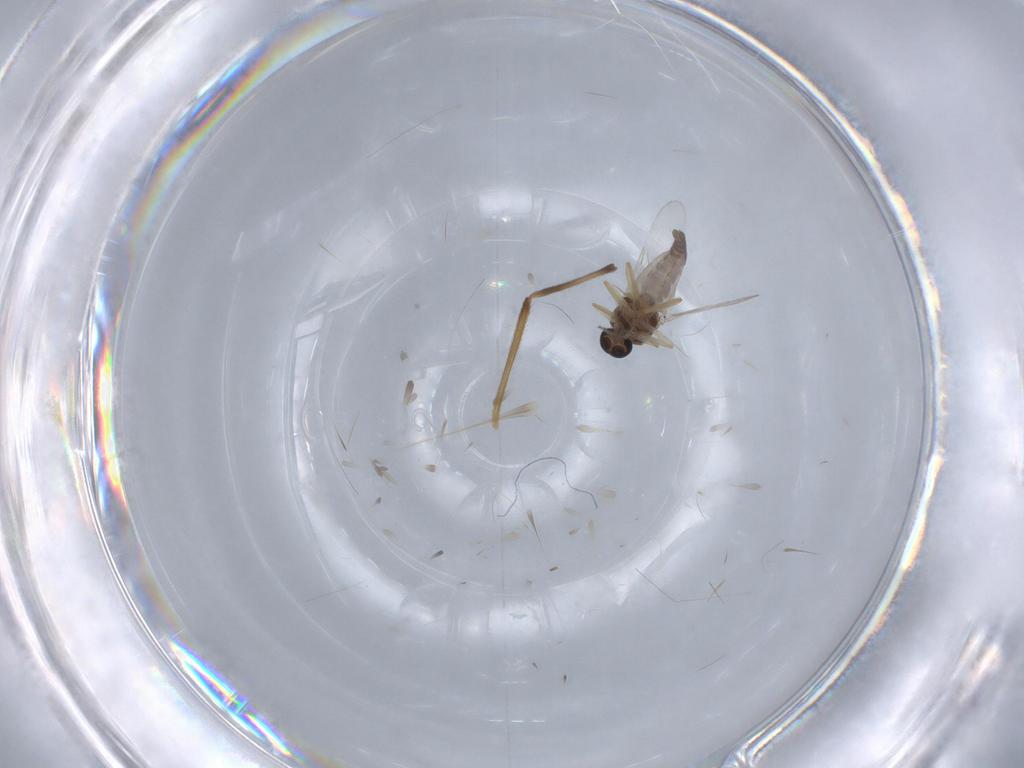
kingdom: Animalia
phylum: Arthropoda
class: Insecta
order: Diptera
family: Ceratopogonidae
